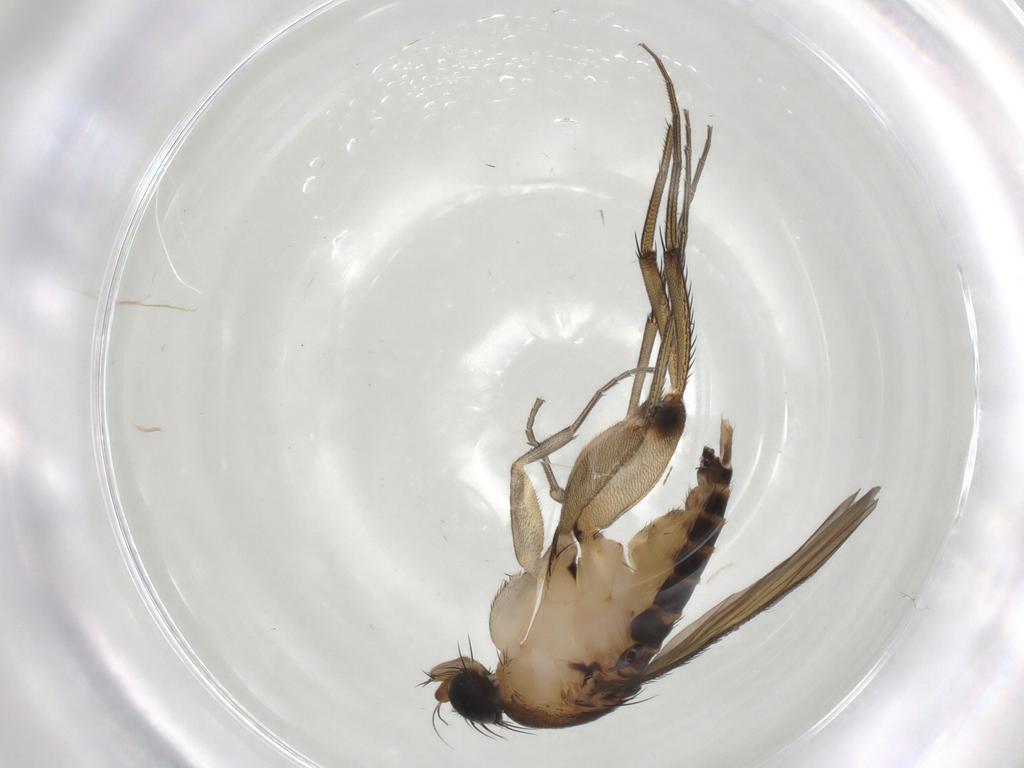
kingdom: Animalia
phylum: Arthropoda
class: Insecta
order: Diptera
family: Phoridae
